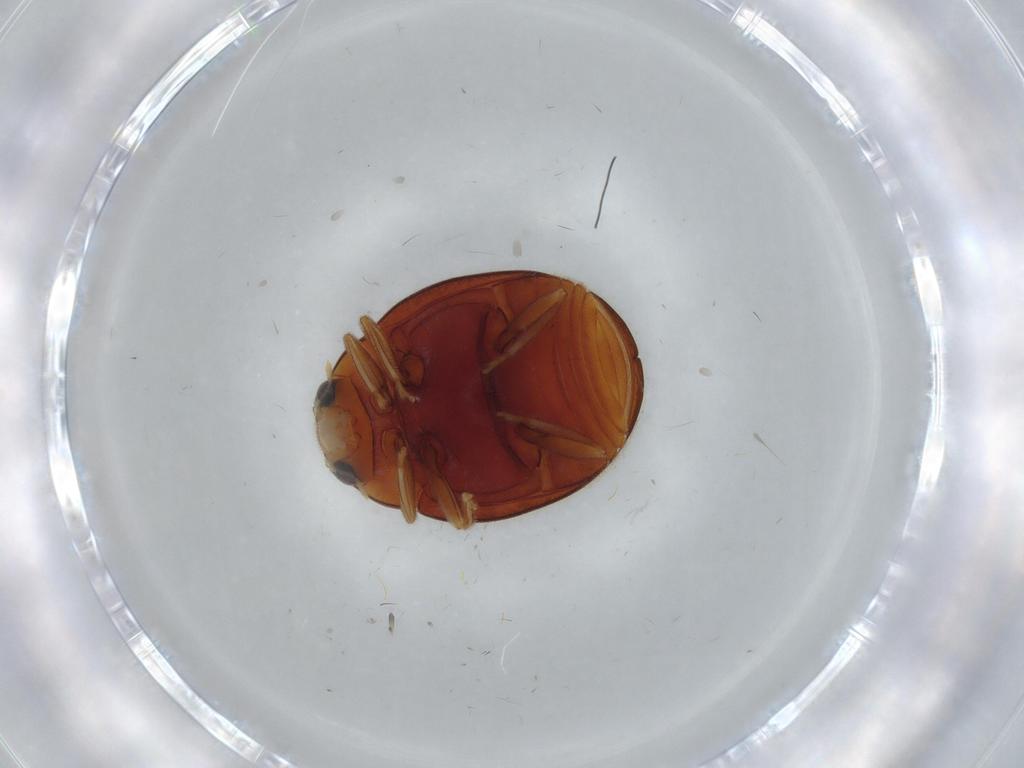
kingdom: Animalia
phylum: Arthropoda
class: Insecta
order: Coleoptera
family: Coccinellidae
